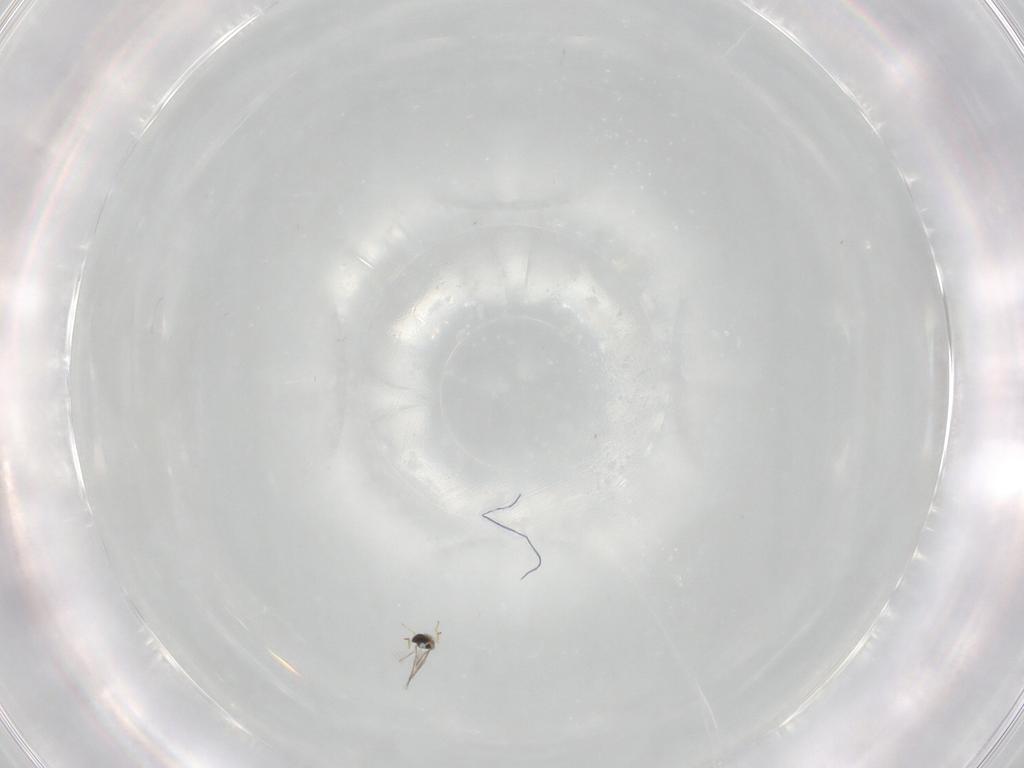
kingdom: Animalia
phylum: Arthropoda
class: Insecta
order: Hymenoptera
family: Mymaridae
